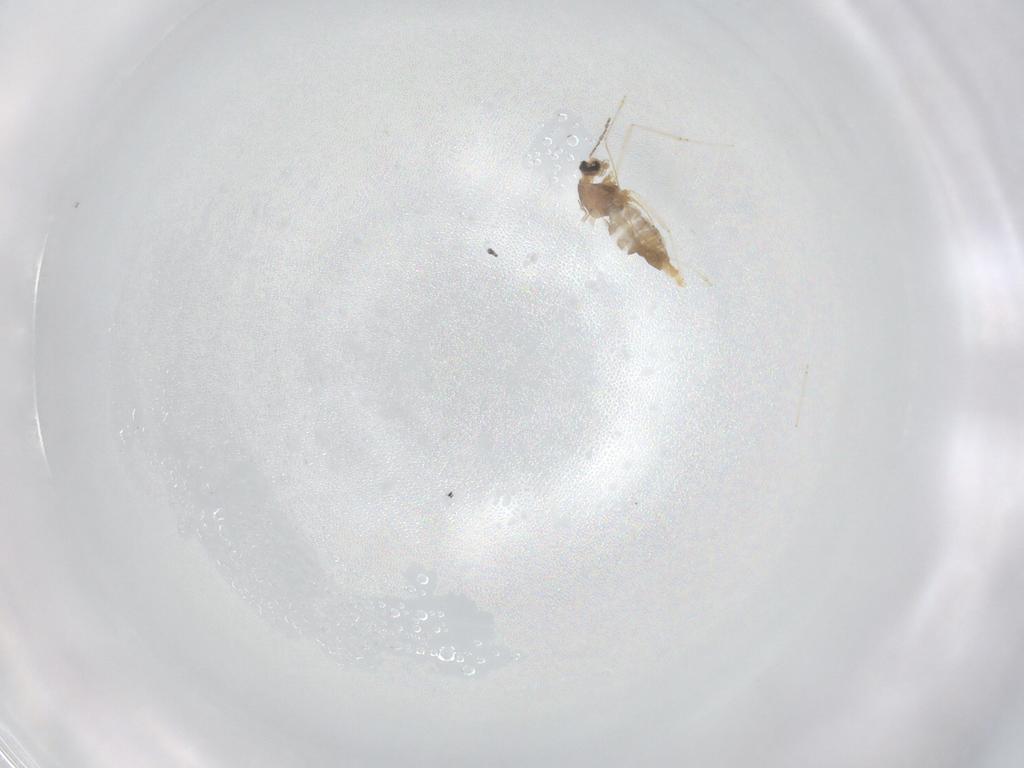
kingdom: Animalia
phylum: Arthropoda
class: Insecta
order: Diptera
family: Cecidomyiidae
